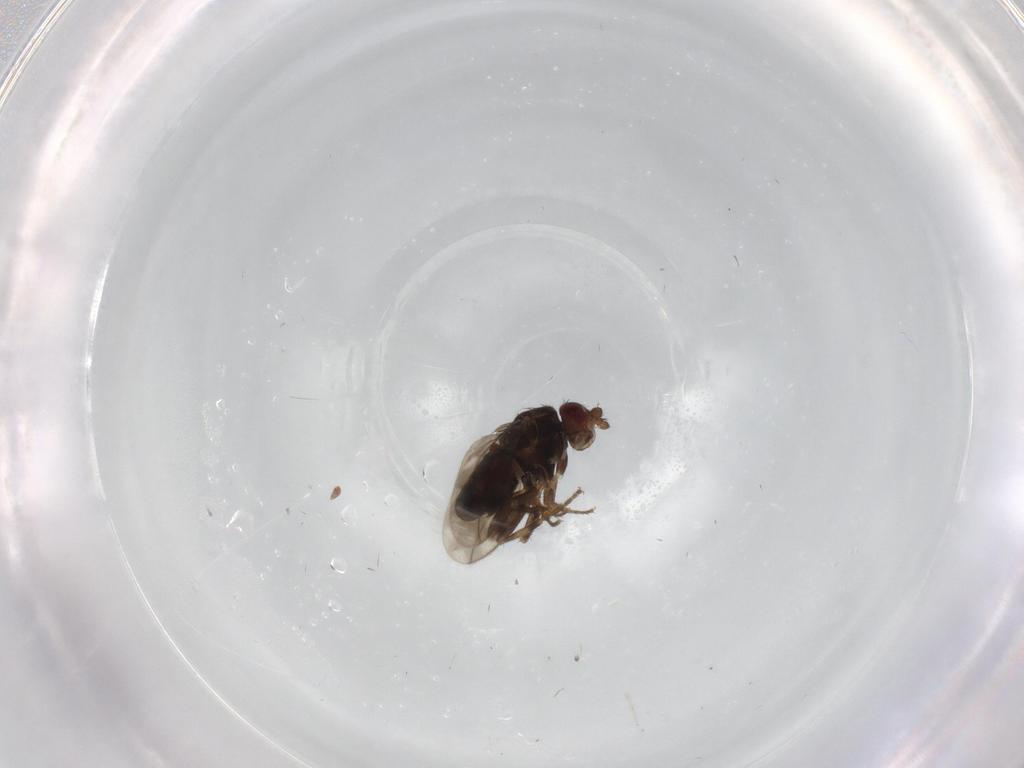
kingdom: Animalia
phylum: Arthropoda
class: Insecta
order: Diptera
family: Sphaeroceridae
